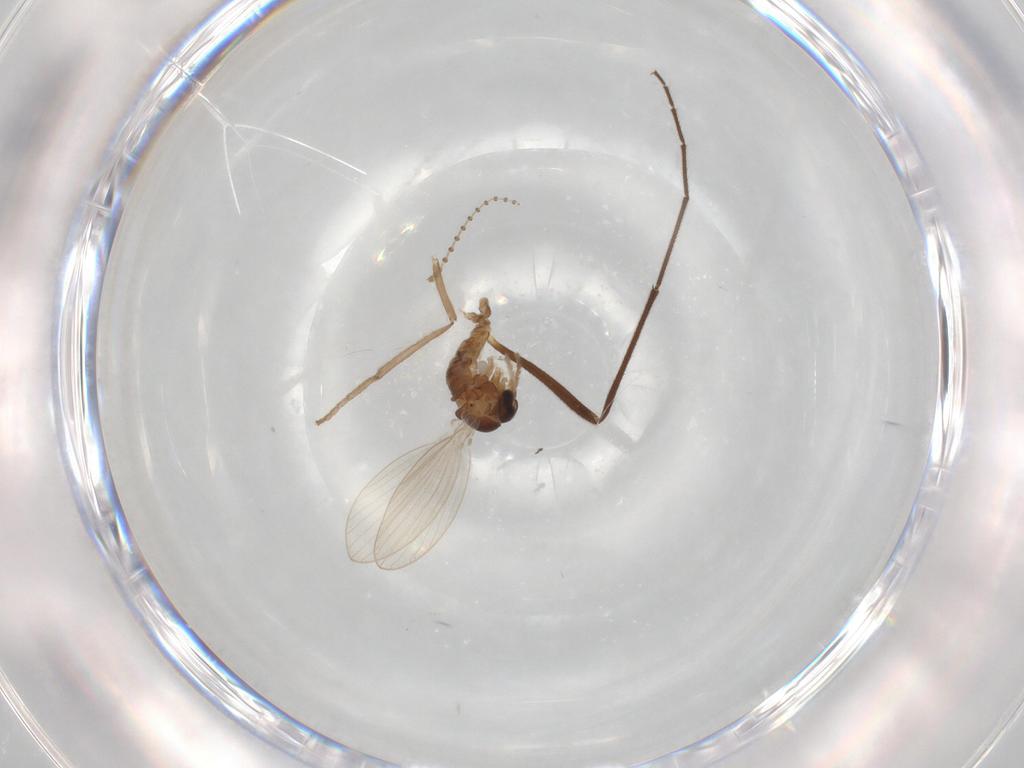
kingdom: Animalia
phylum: Arthropoda
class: Insecta
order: Diptera
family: Psychodidae
